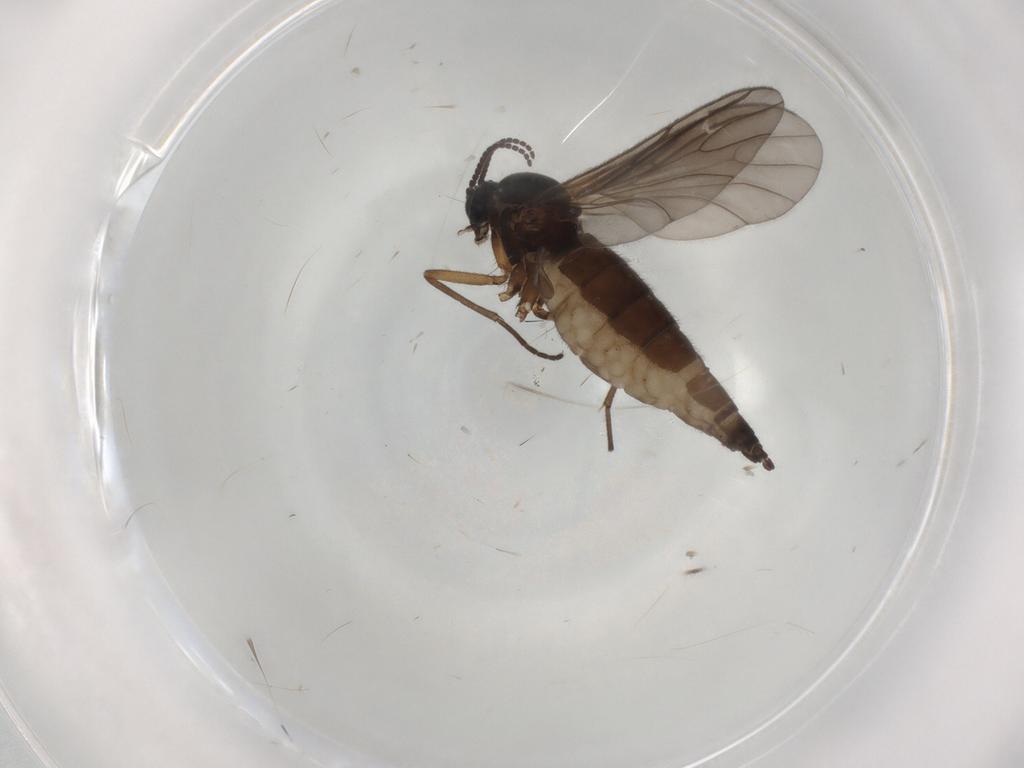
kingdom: Animalia
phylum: Arthropoda
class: Insecta
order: Diptera
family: Sciaridae
